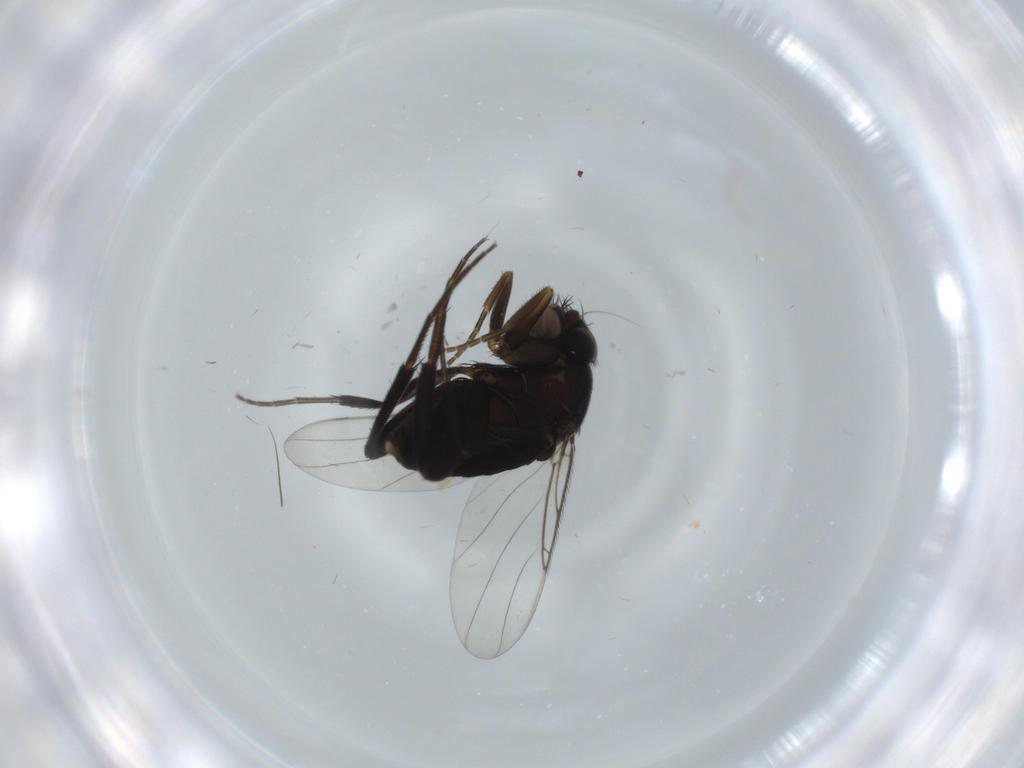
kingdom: Animalia
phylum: Arthropoda
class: Insecta
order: Diptera
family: Phoridae
